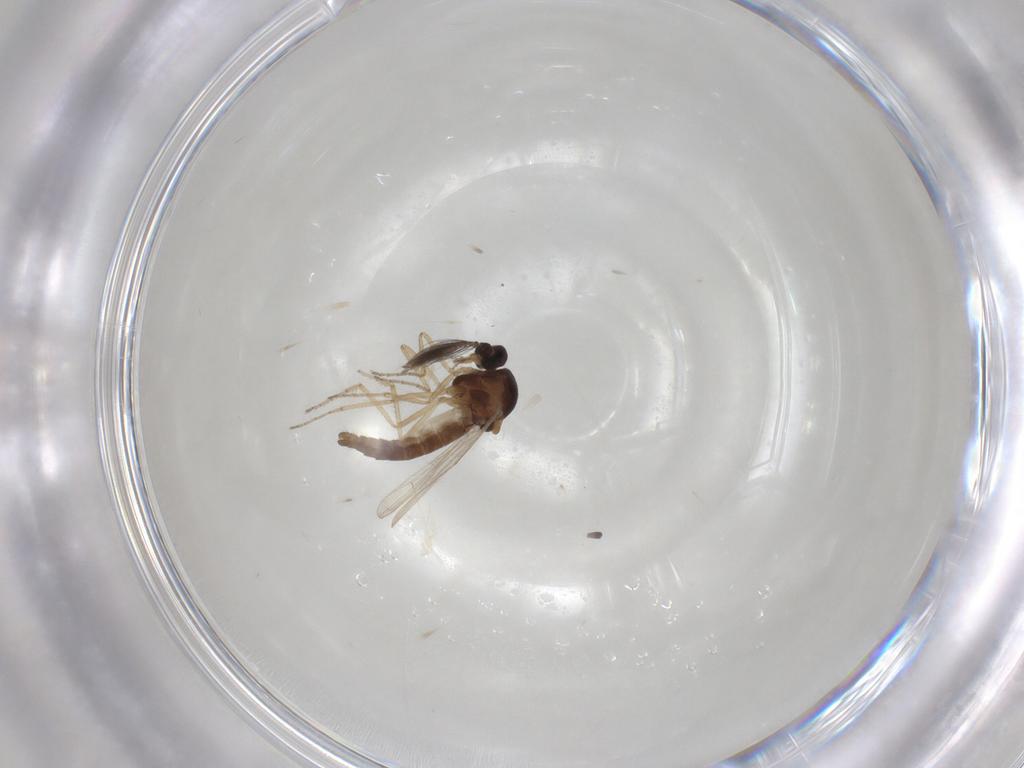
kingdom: Animalia
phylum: Arthropoda
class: Insecta
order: Diptera
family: Ceratopogonidae
